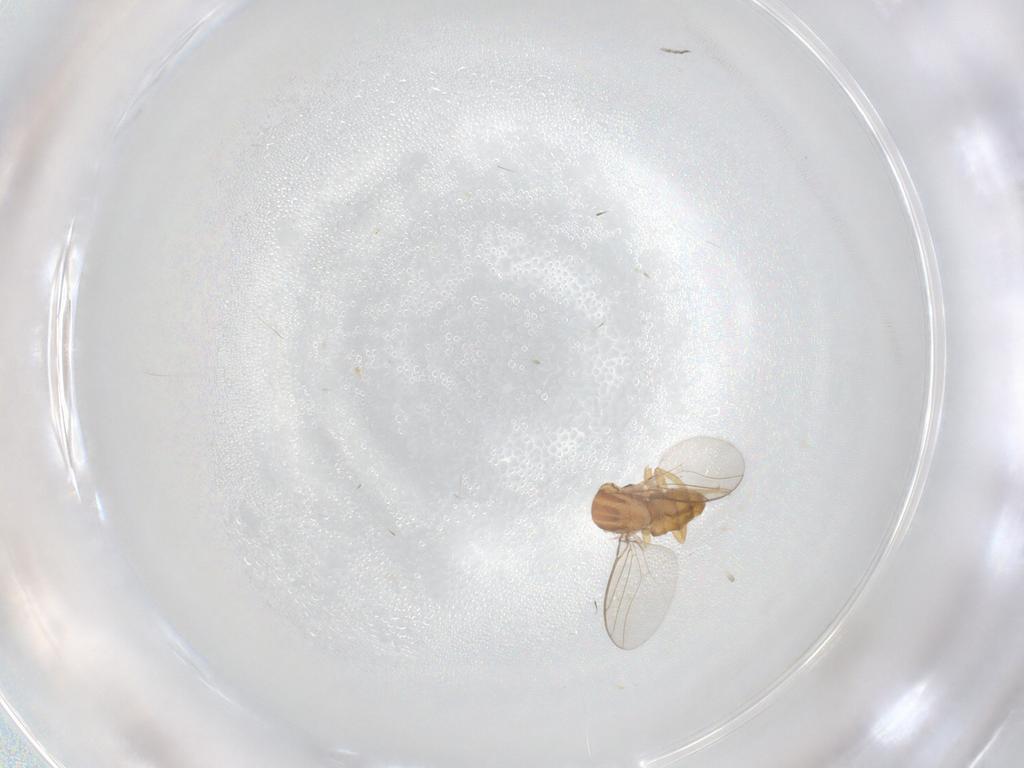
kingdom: Animalia
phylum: Arthropoda
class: Insecta
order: Diptera
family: Ceratopogonidae
